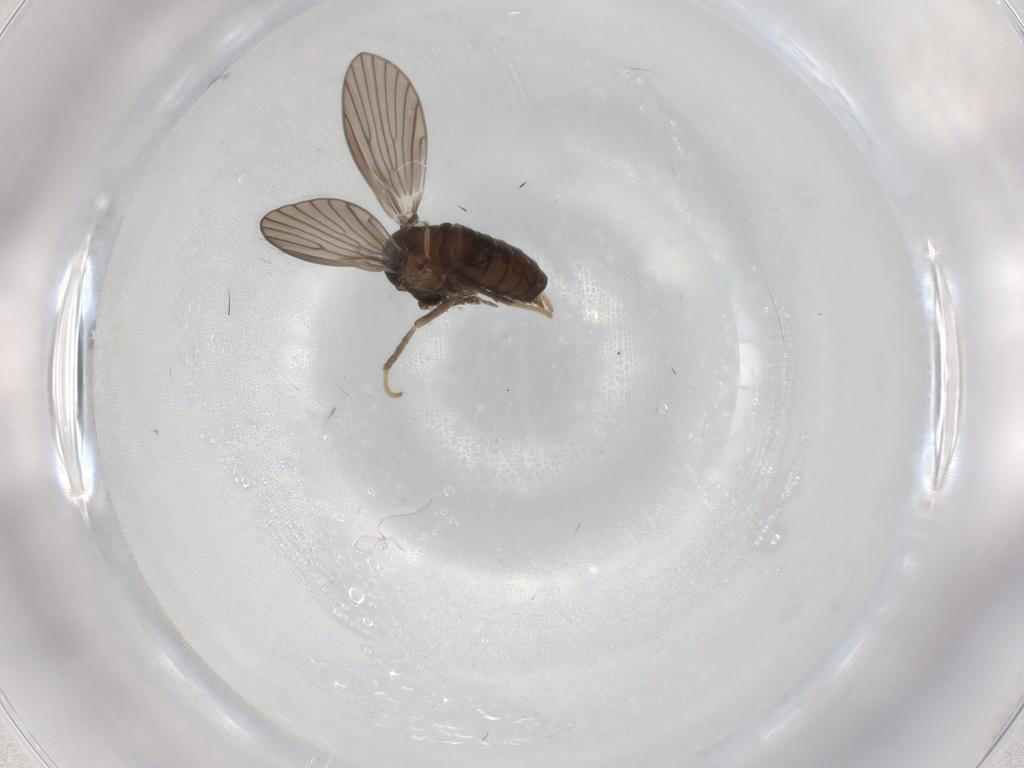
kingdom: Animalia
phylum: Arthropoda
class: Insecta
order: Diptera
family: Psychodidae
